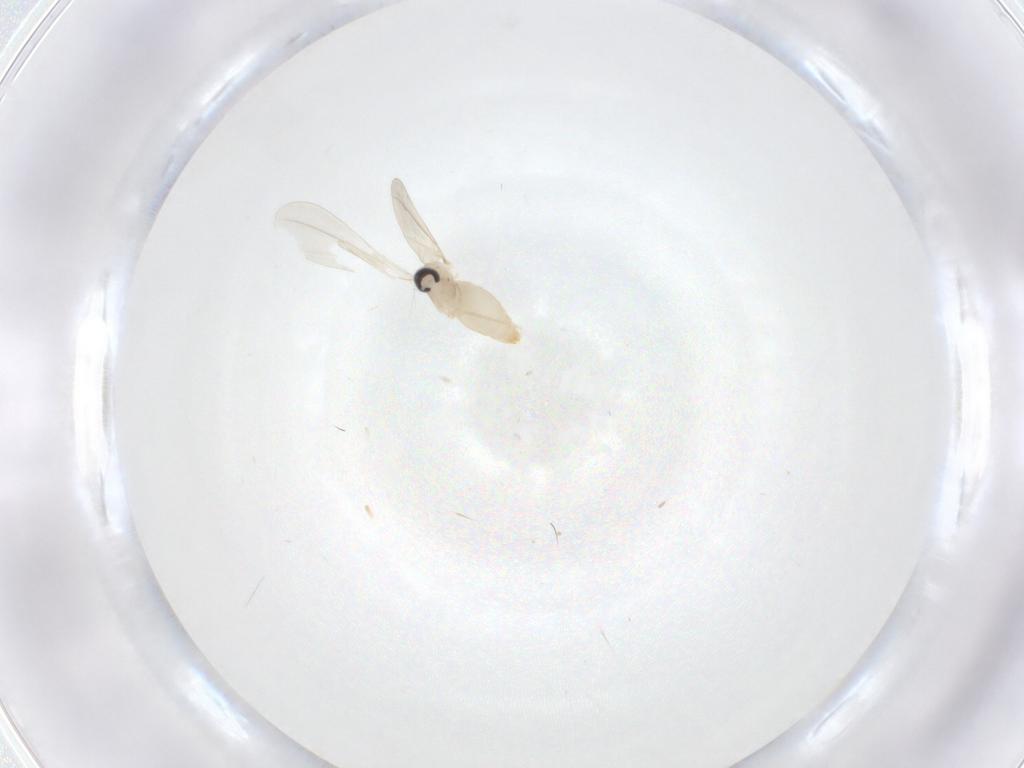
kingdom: Animalia
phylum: Arthropoda
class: Insecta
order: Diptera
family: Cecidomyiidae
